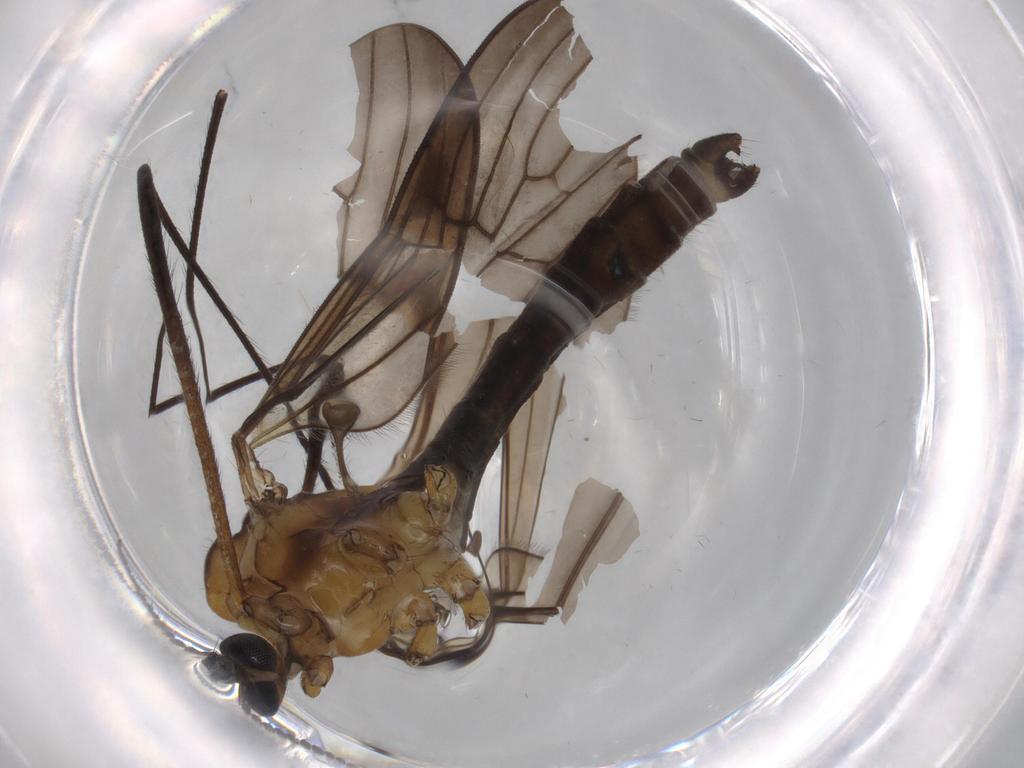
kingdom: Animalia
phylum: Arthropoda
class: Insecta
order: Diptera
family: Limoniidae
